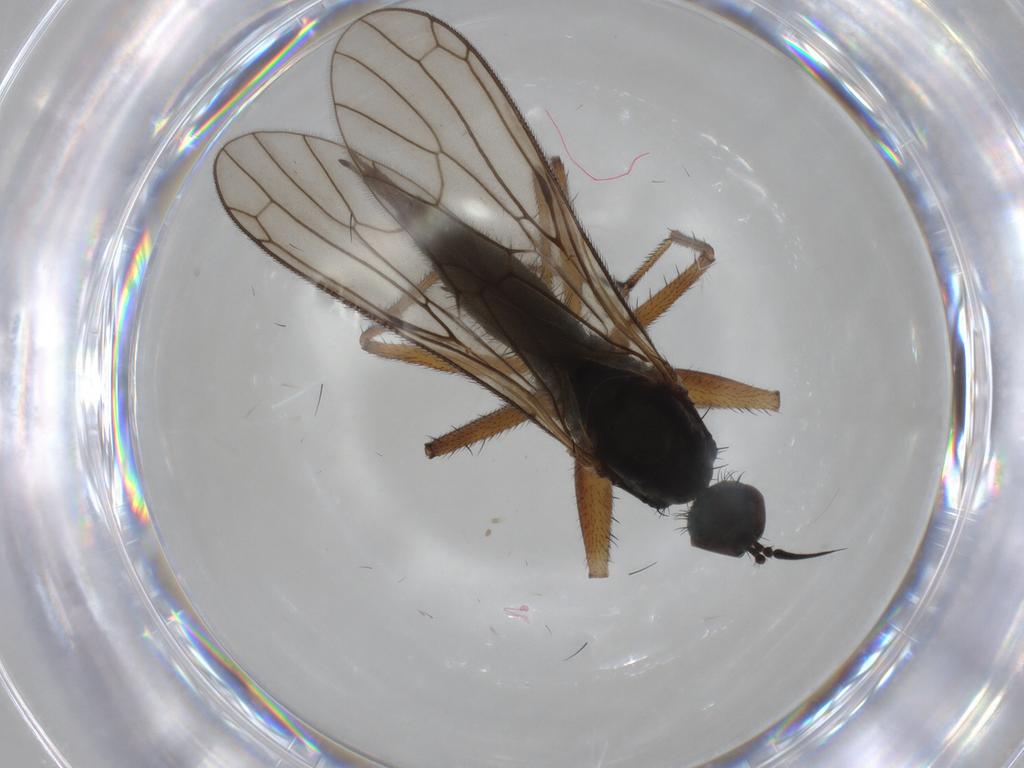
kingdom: Animalia
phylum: Arthropoda
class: Insecta
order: Diptera
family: Chironomidae
